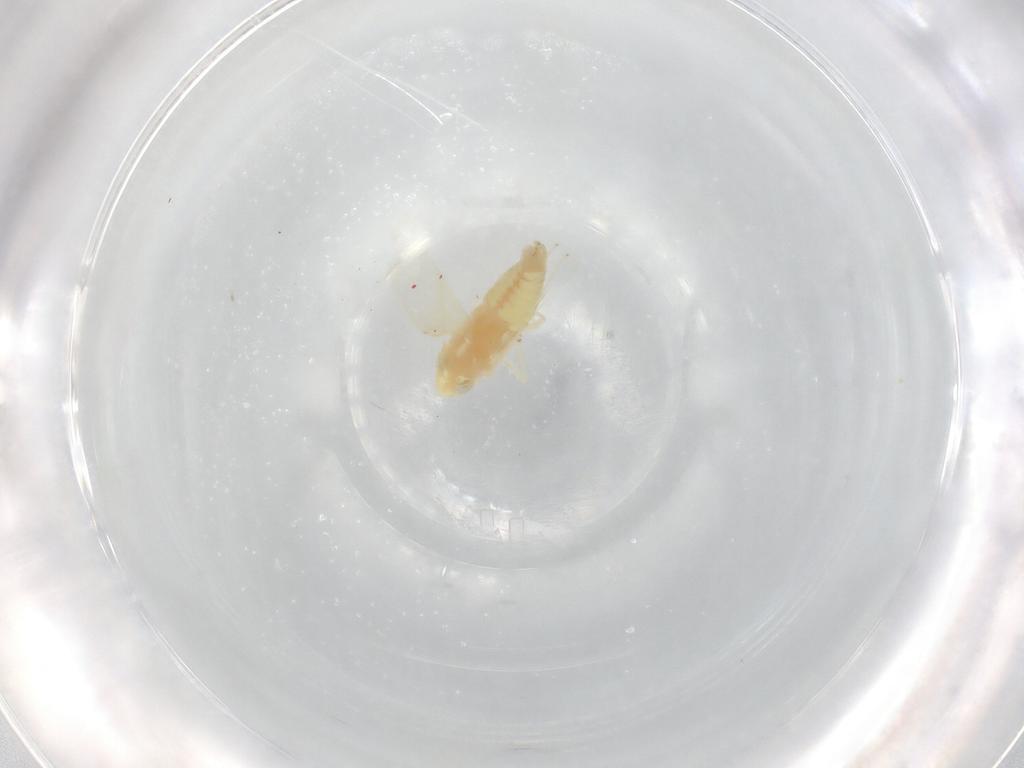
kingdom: Animalia
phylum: Arthropoda
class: Insecta
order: Hemiptera
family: Cicadellidae
